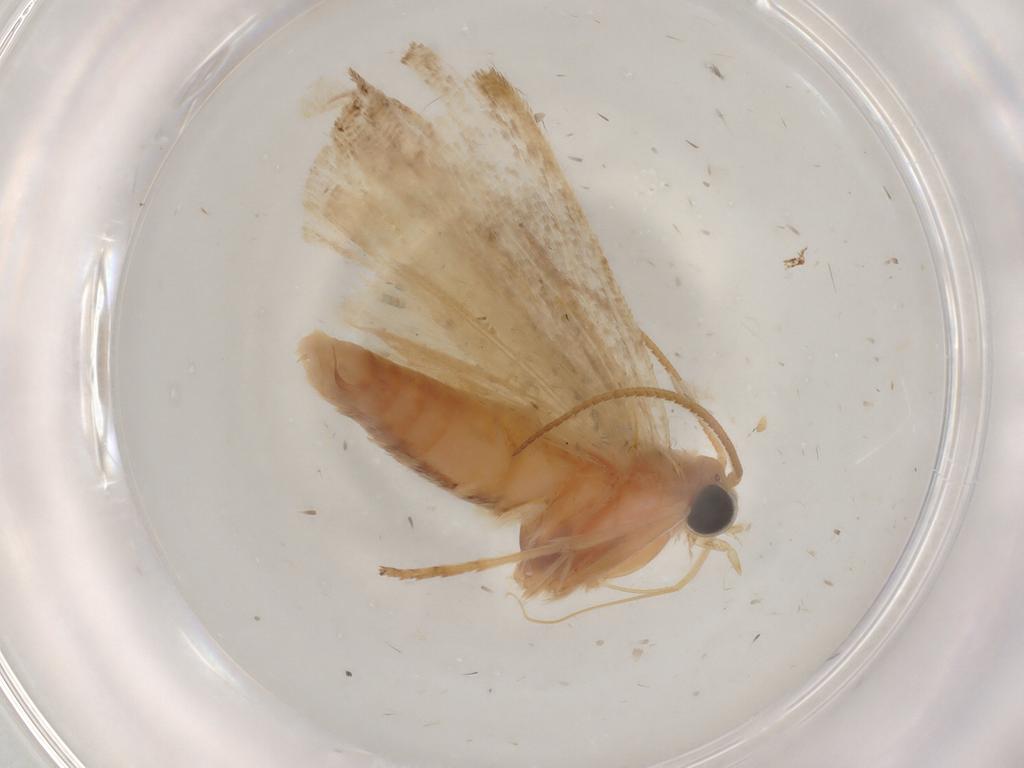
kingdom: Animalia
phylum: Arthropoda
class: Insecta
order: Lepidoptera
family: Pyralidae
